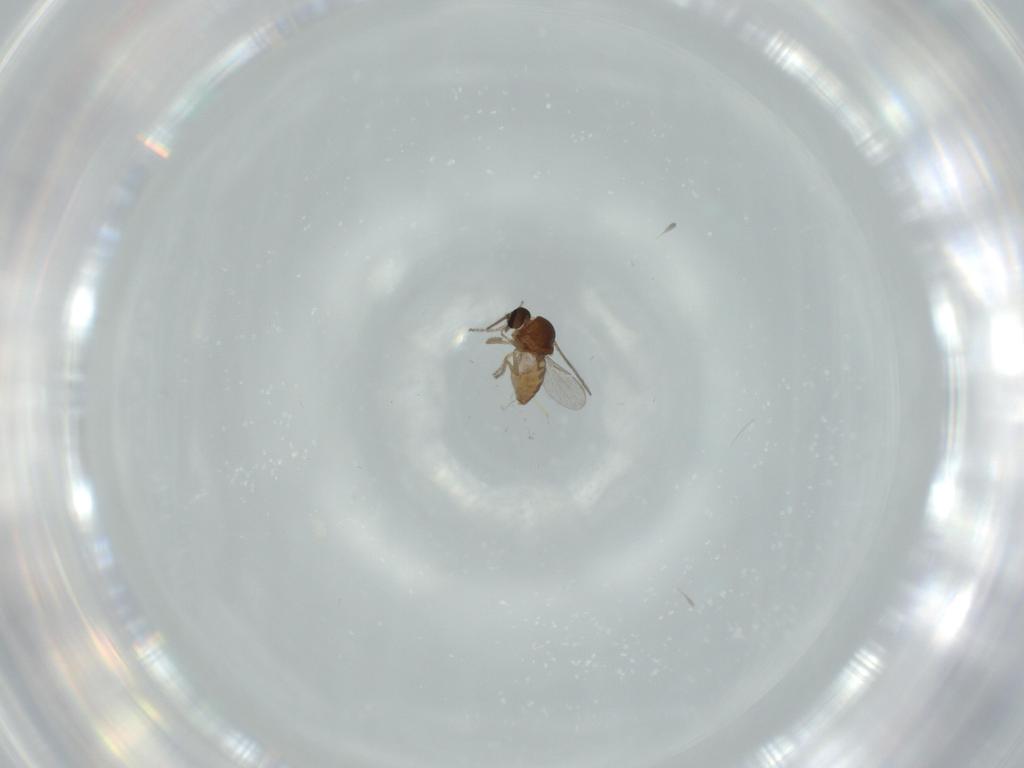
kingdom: Animalia
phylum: Arthropoda
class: Insecta
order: Diptera
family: Ceratopogonidae
